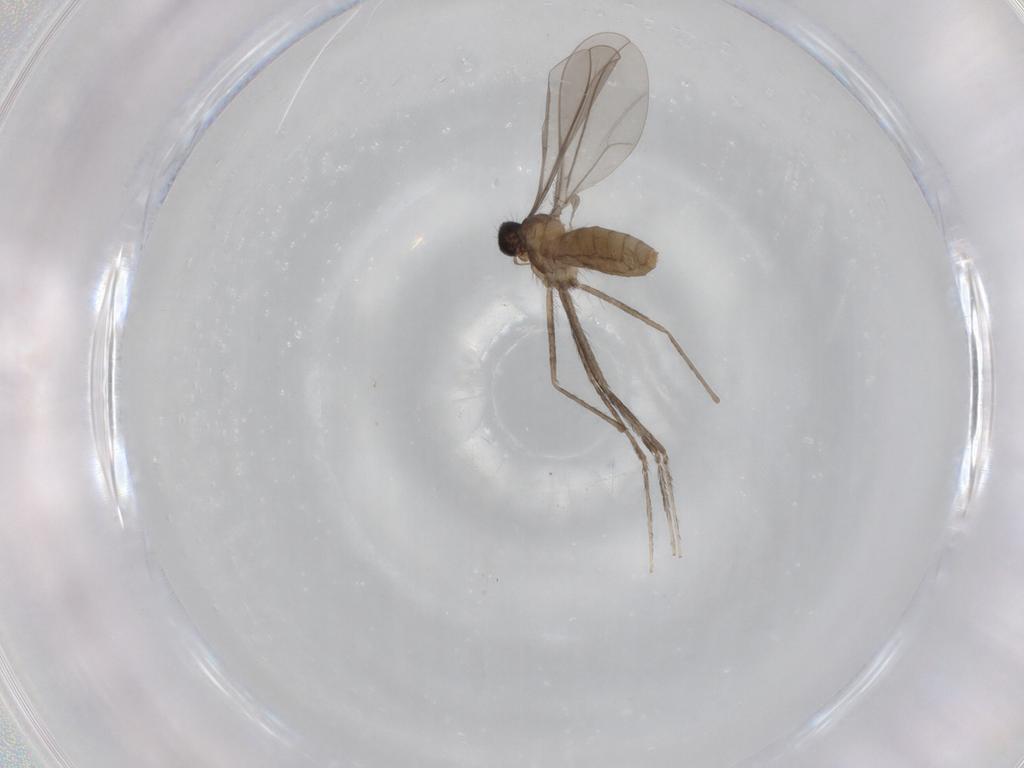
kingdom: Animalia
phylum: Arthropoda
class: Insecta
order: Diptera
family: Cecidomyiidae
